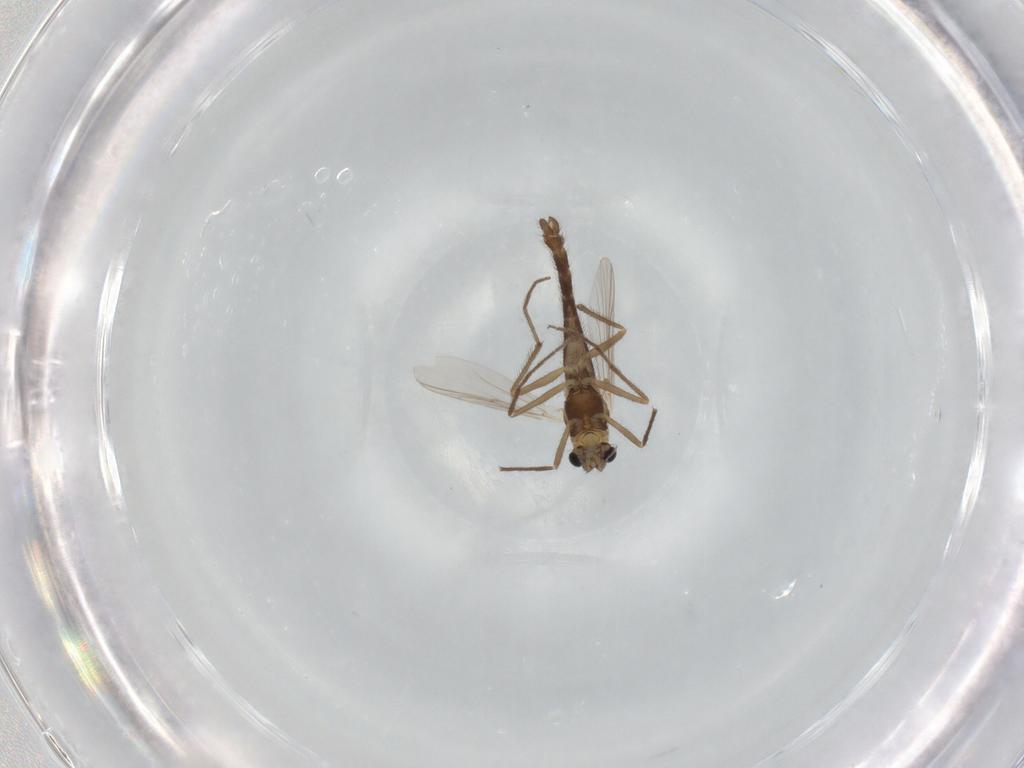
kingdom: Animalia
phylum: Arthropoda
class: Insecta
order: Diptera
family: Chironomidae
